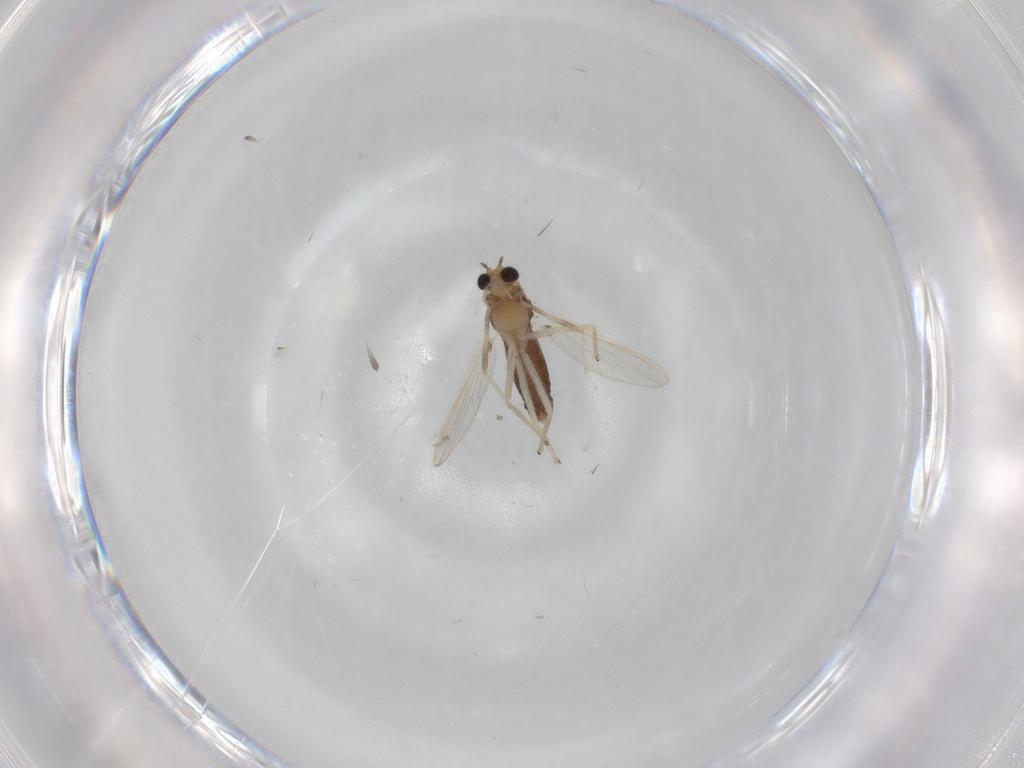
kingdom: Animalia
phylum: Arthropoda
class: Insecta
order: Diptera
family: Chironomidae
